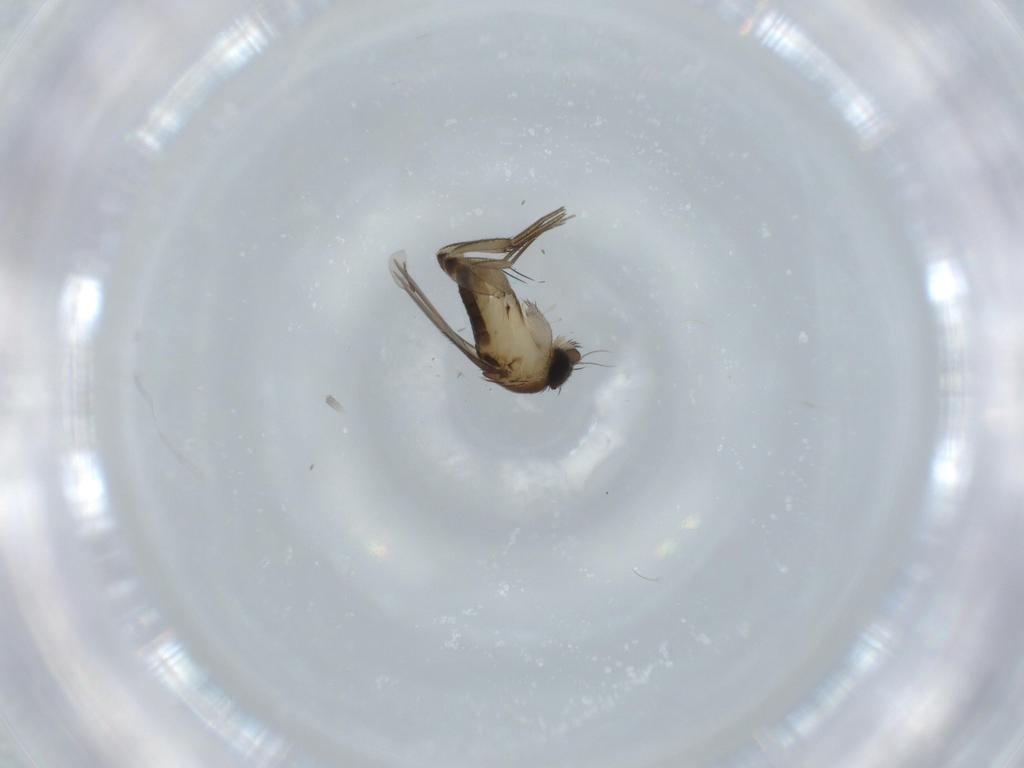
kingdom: Animalia
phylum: Arthropoda
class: Insecta
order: Diptera
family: Phoridae
